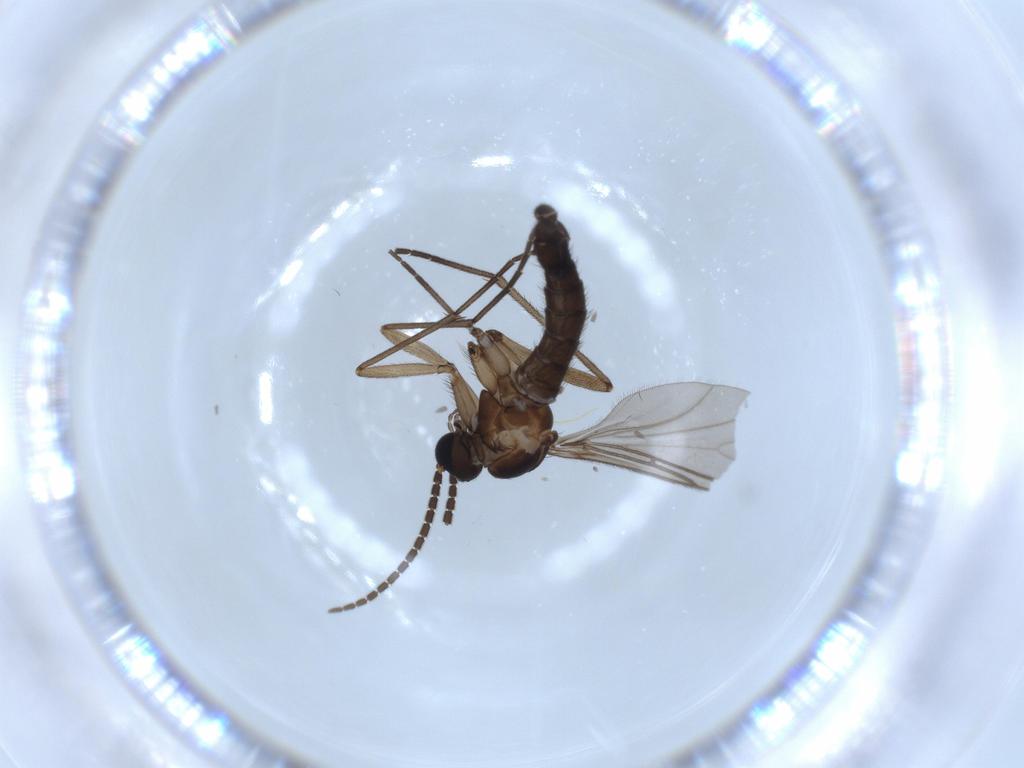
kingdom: Animalia
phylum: Arthropoda
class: Insecta
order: Diptera
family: Sciaridae
